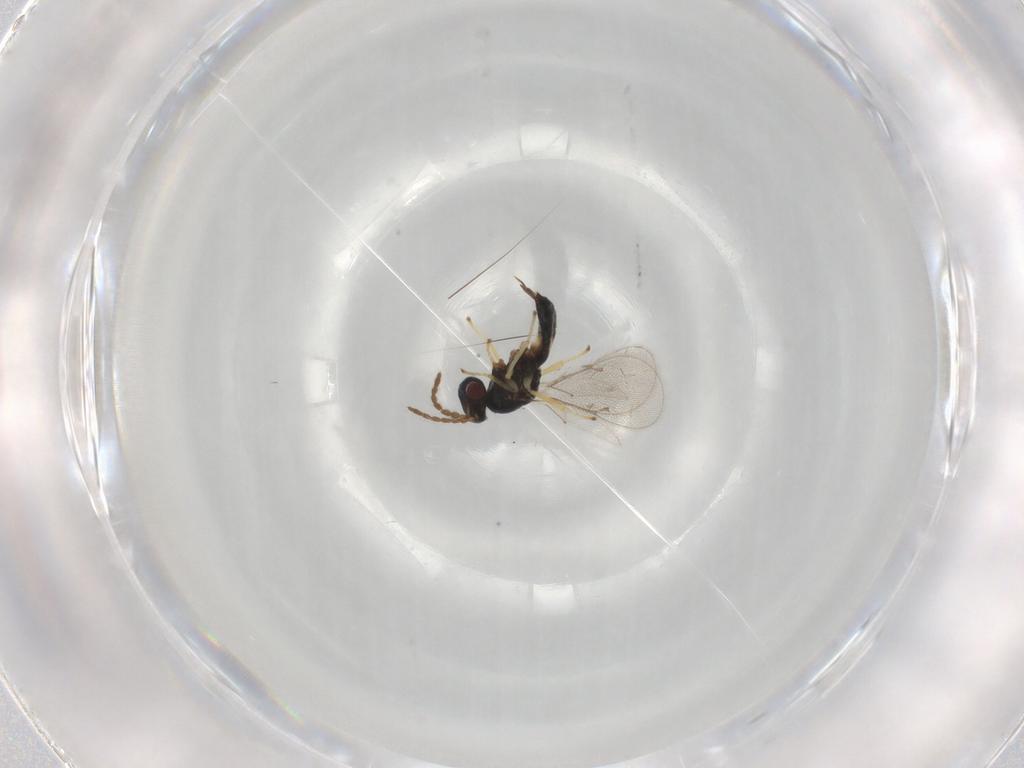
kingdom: Animalia
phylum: Arthropoda
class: Insecta
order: Hymenoptera
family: Eulophidae
